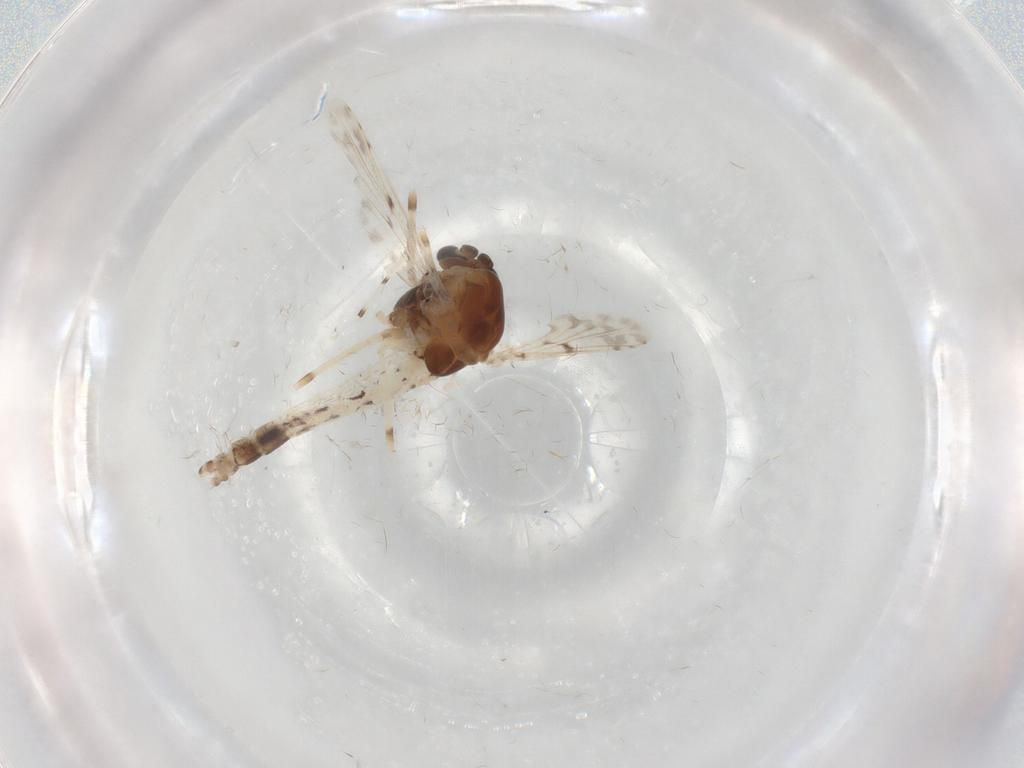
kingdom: Animalia
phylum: Arthropoda
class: Insecta
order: Diptera
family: Chironomidae
